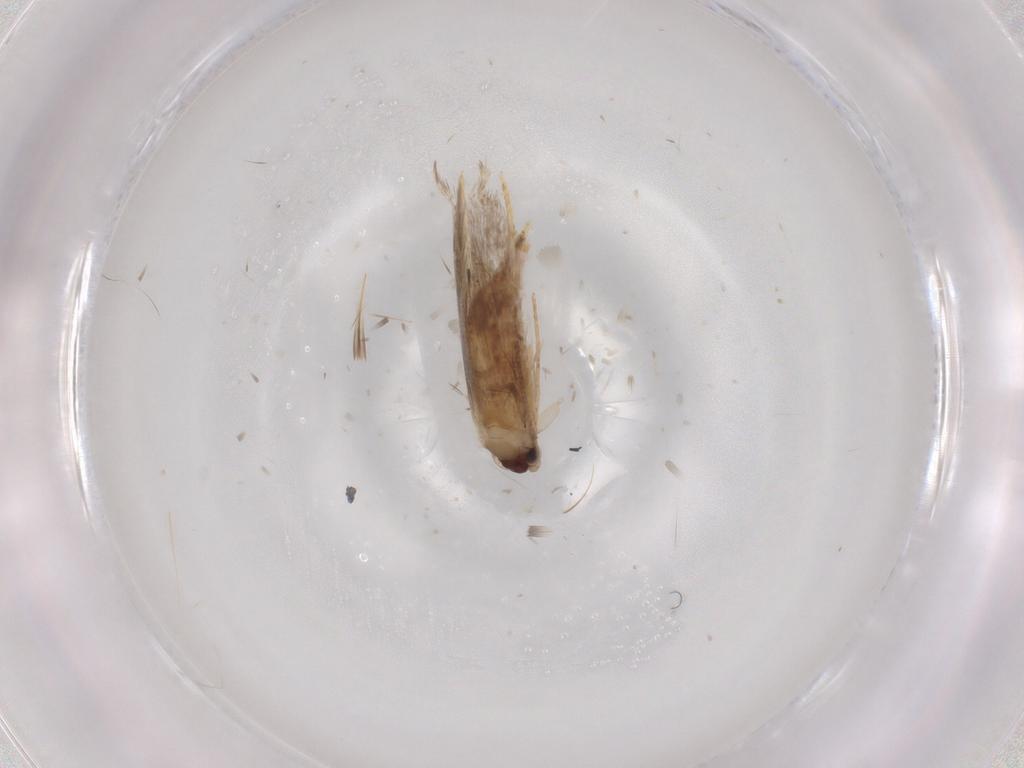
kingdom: Animalia
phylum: Arthropoda
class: Insecta
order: Lepidoptera
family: Tineidae
